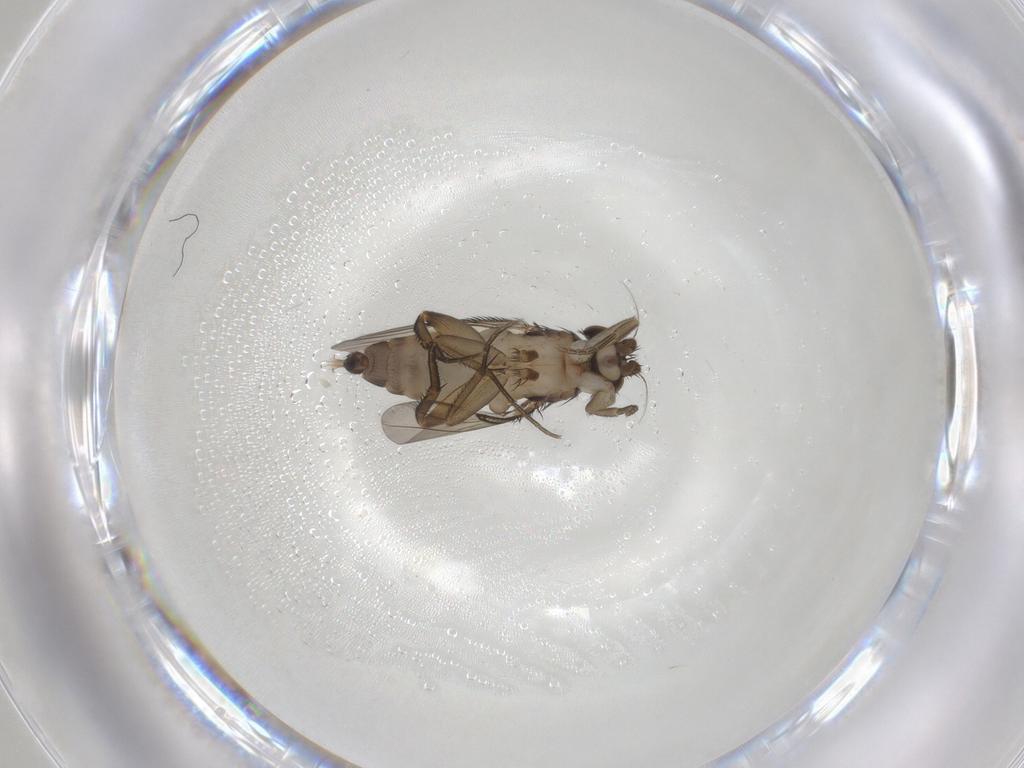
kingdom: Animalia
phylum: Arthropoda
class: Insecta
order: Diptera
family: Phoridae
